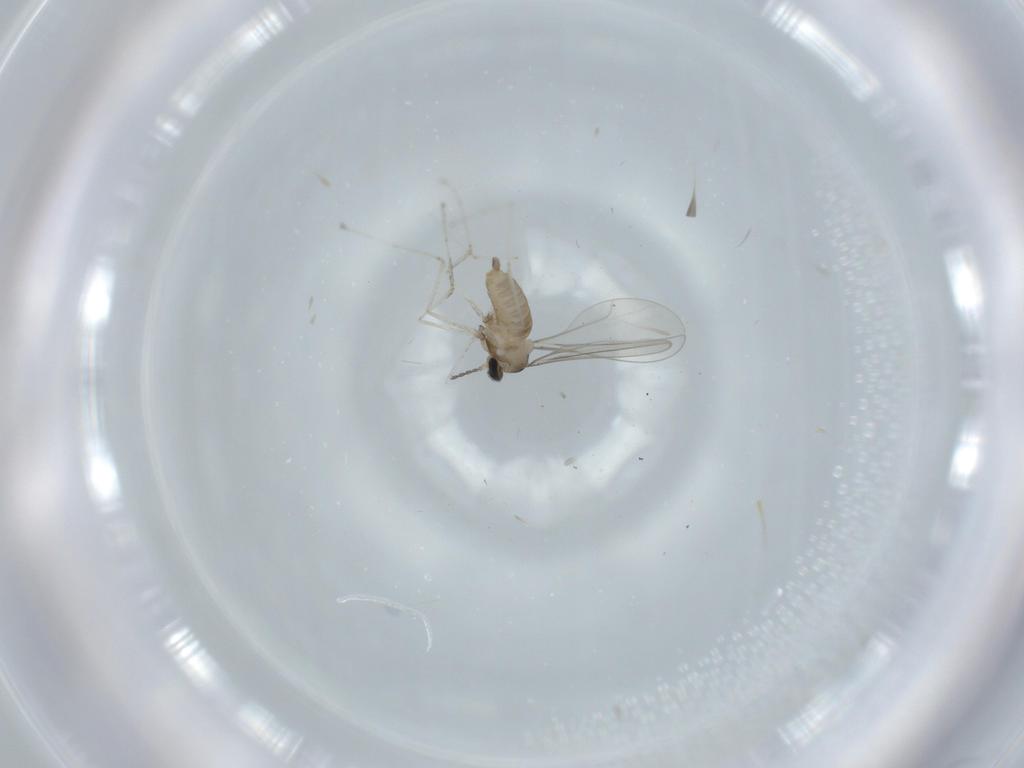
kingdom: Animalia
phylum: Arthropoda
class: Insecta
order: Diptera
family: Cecidomyiidae
